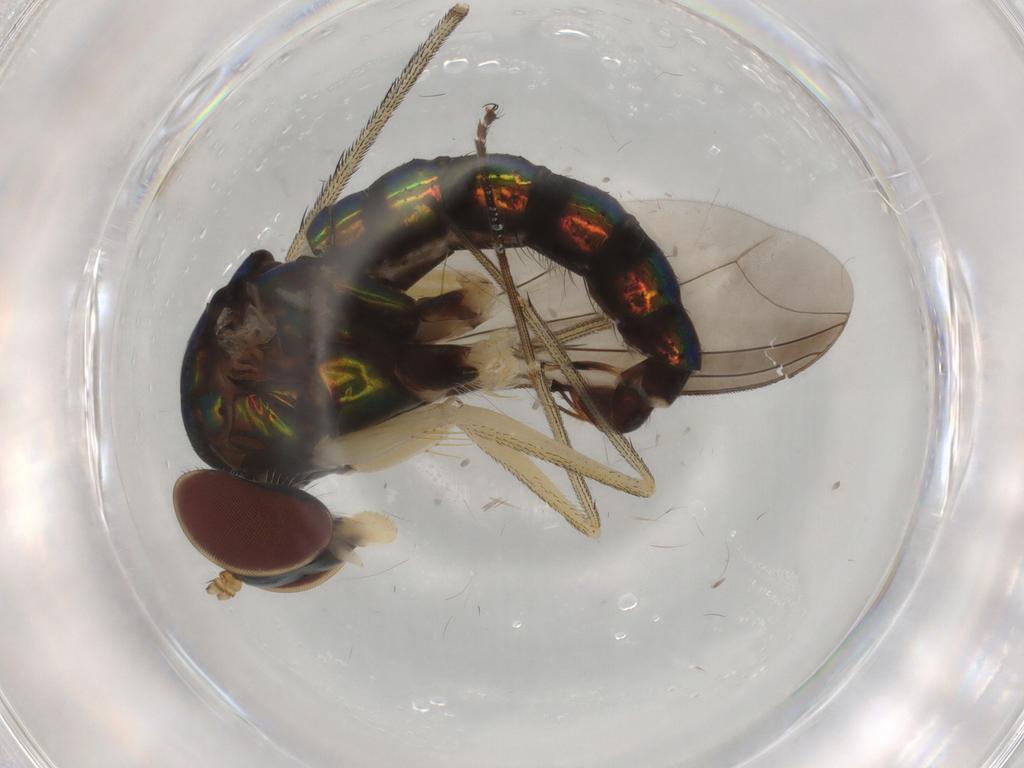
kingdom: Animalia
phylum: Arthropoda
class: Insecta
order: Diptera
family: Dolichopodidae
